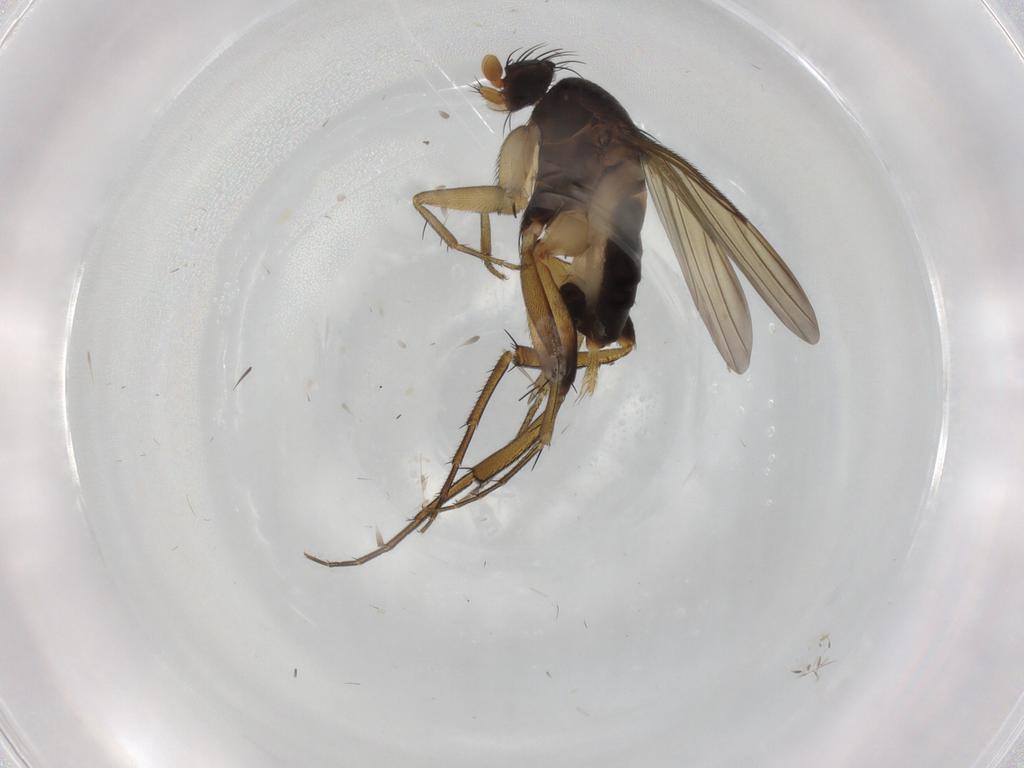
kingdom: Animalia
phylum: Arthropoda
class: Insecta
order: Diptera
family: Phoridae
